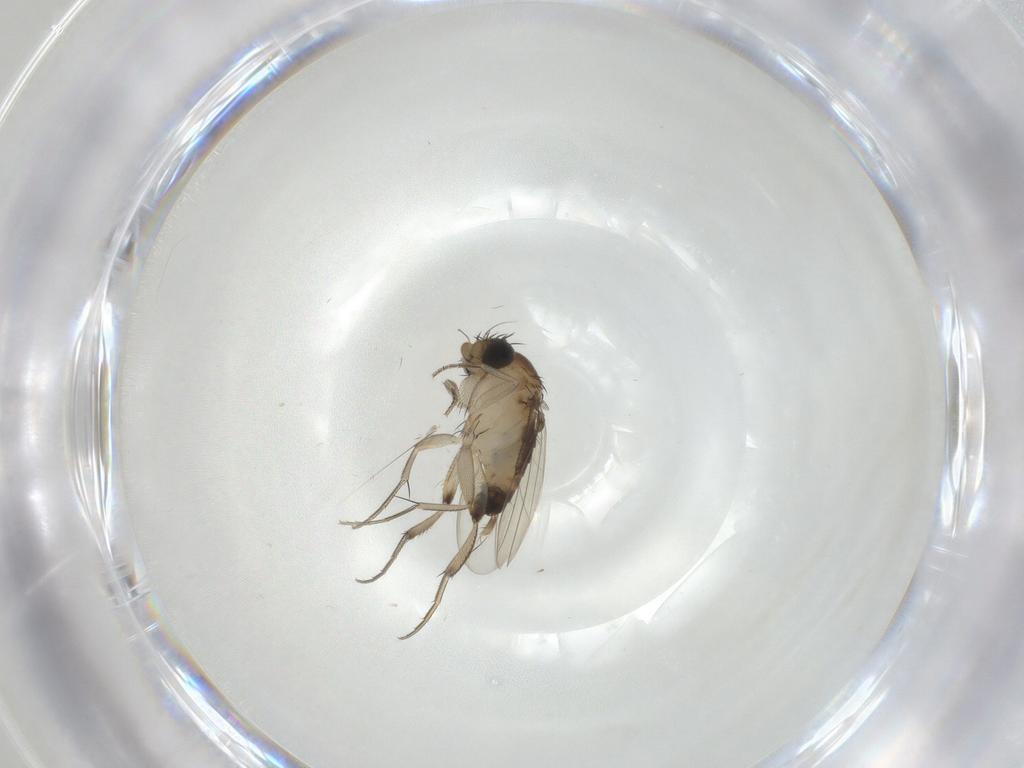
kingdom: Animalia
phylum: Arthropoda
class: Insecta
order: Diptera
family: Phoridae
